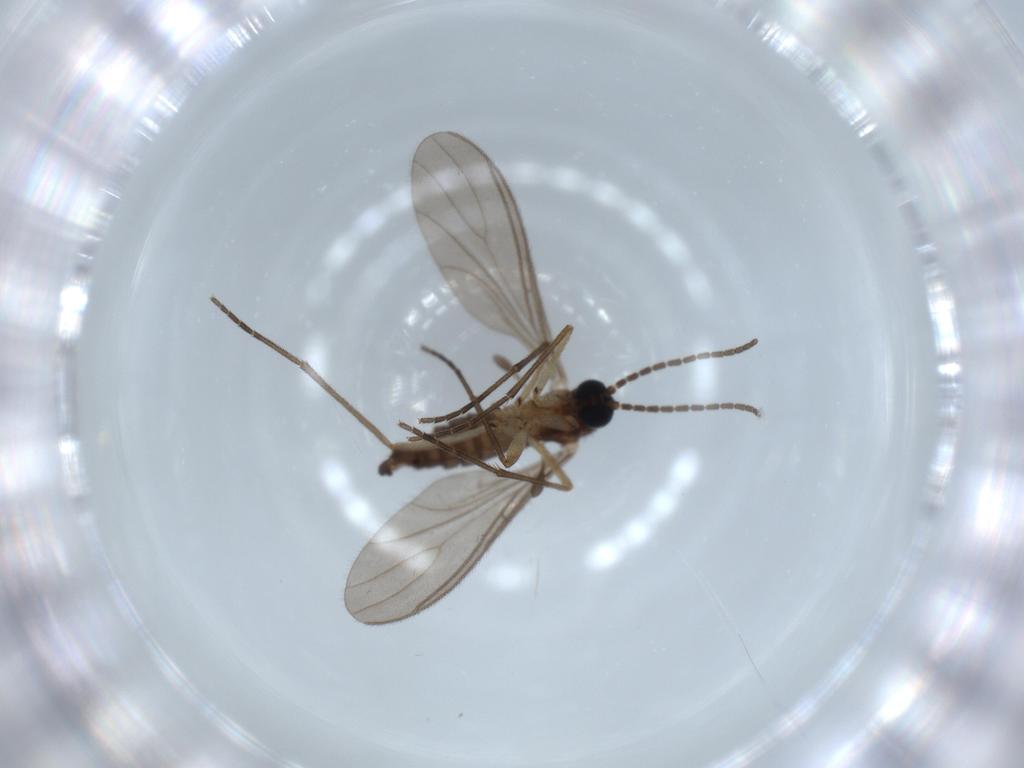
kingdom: Animalia
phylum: Arthropoda
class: Insecta
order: Diptera
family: Sciaridae
